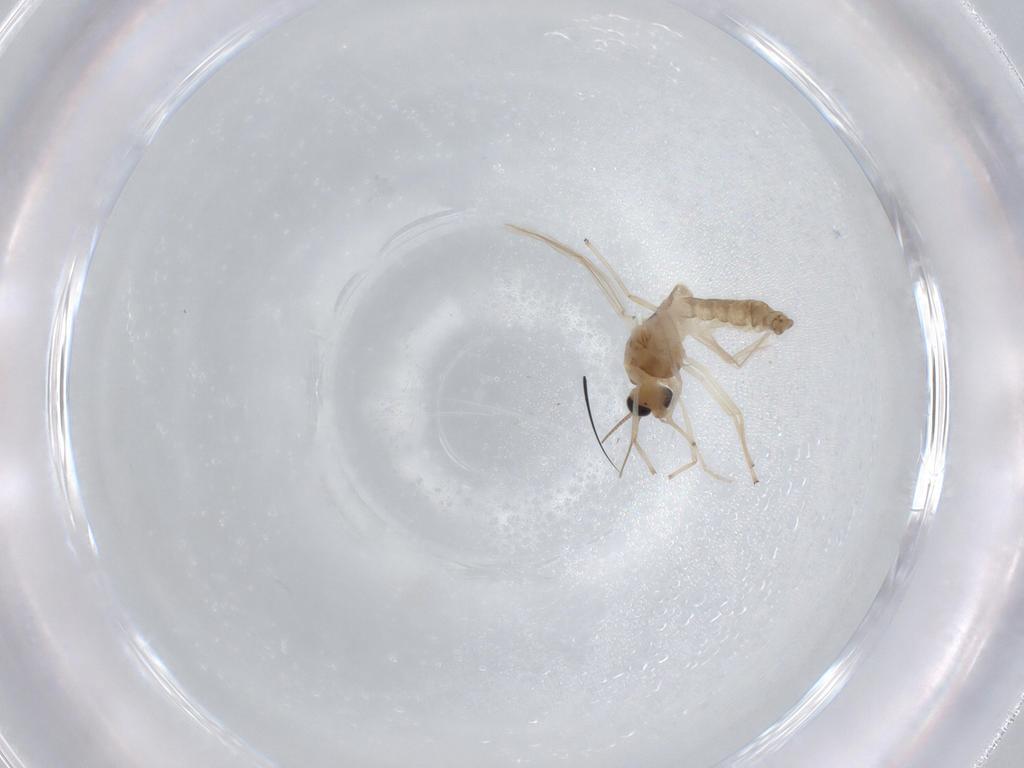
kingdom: Animalia
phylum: Arthropoda
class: Insecta
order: Diptera
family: Chironomidae
